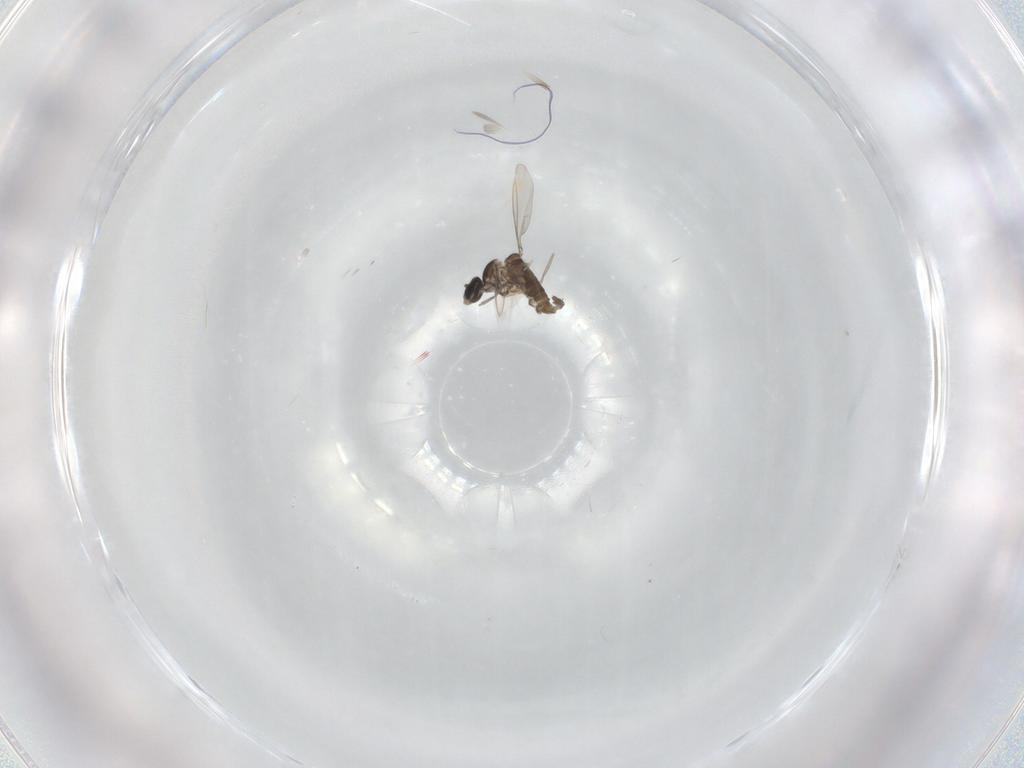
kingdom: Animalia
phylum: Arthropoda
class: Insecta
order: Diptera
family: Cecidomyiidae
